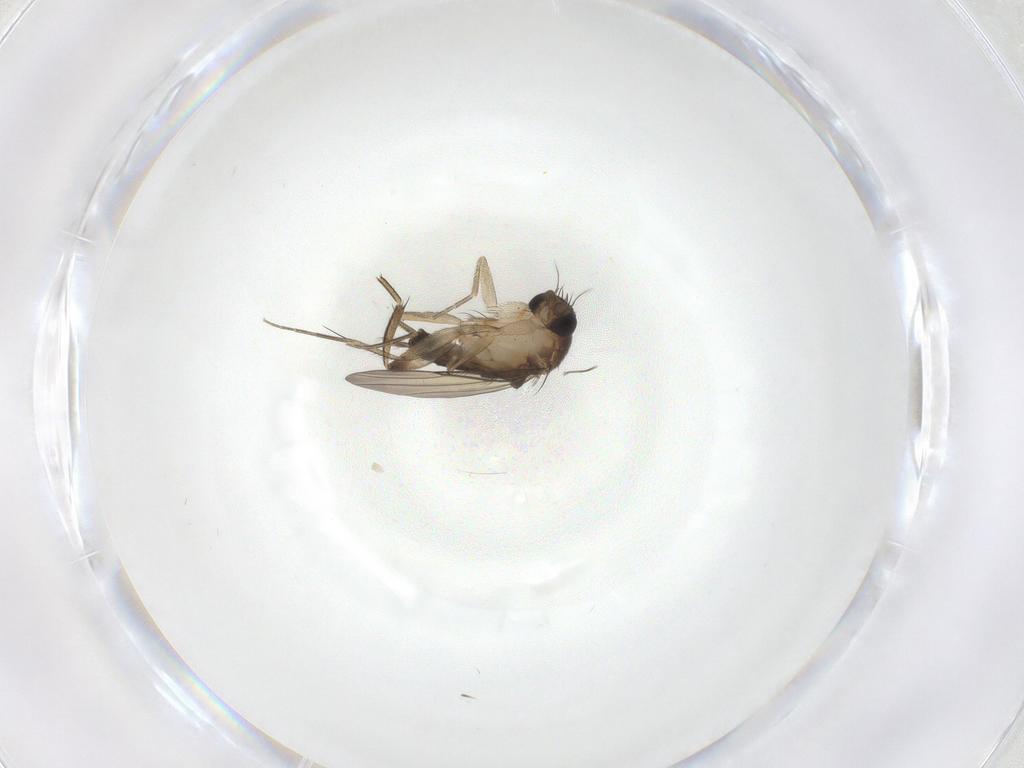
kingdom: Animalia
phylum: Arthropoda
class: Insecta
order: Diptera
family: Phoridae
